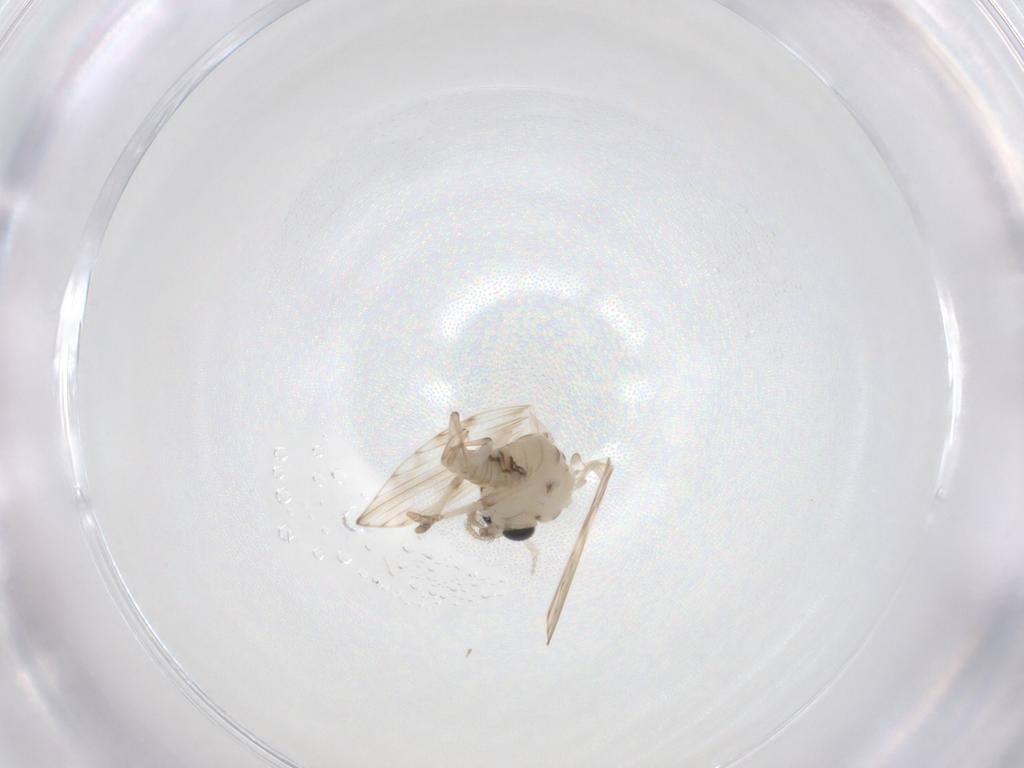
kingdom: Animalia
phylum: Arthropoda
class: Insecta
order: Diptera
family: Psychodidae
